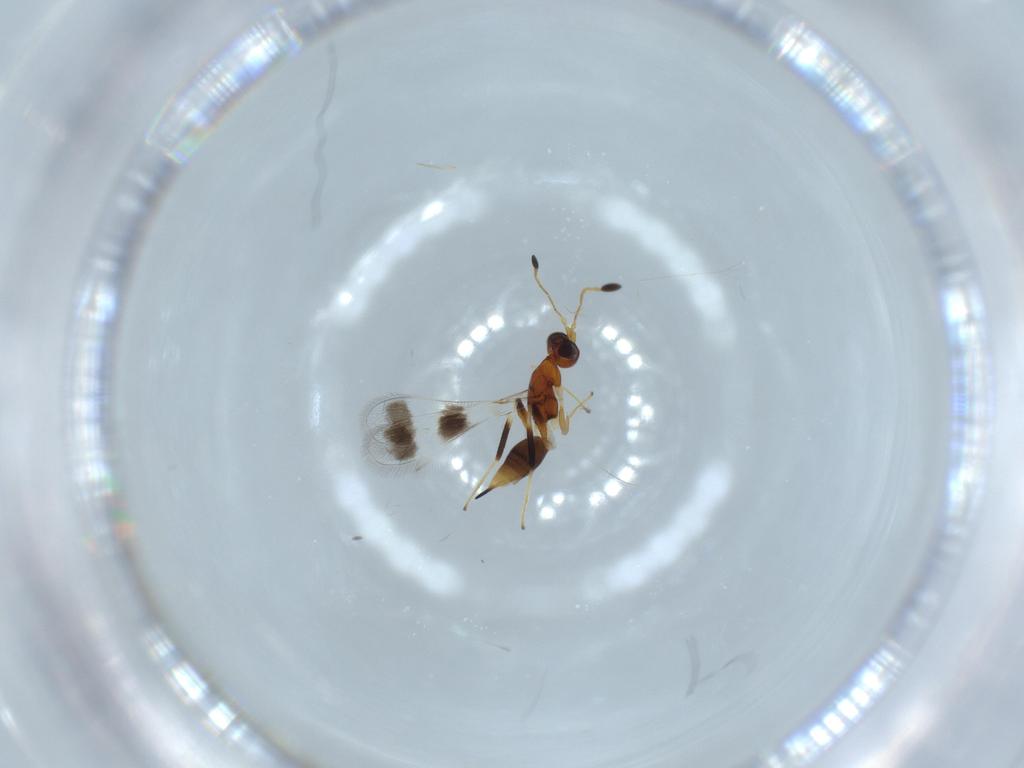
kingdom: Animalia
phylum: Arthropoda
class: Insecta
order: Hymenoptera
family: Mymaridae
